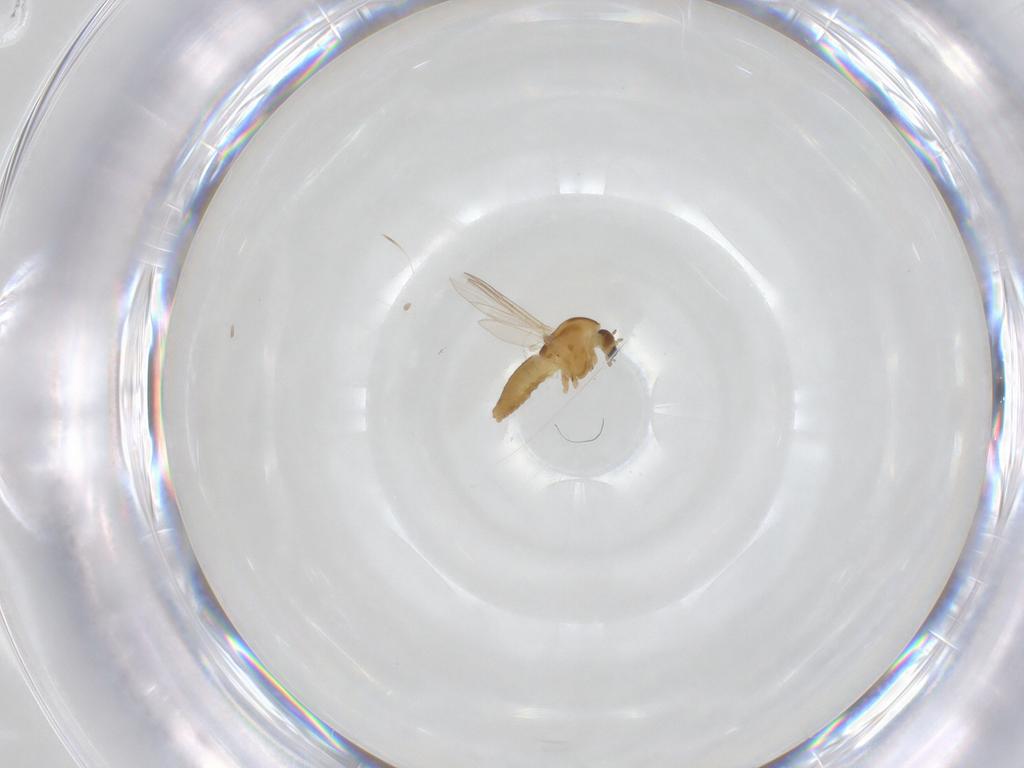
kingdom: Animalia
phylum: Arthropoda
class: Insecta
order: Diptera
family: Chironomidae
